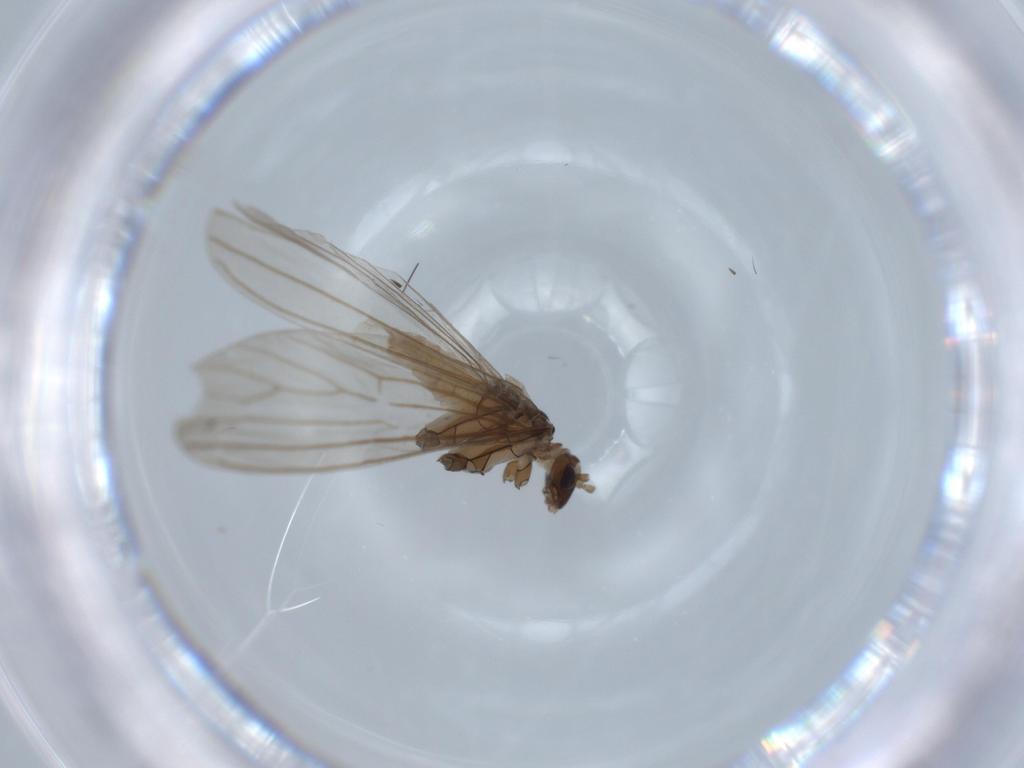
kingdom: Animalia
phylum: Arthropoda
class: Insecta
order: Neuroptera
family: Coniopterygidae
